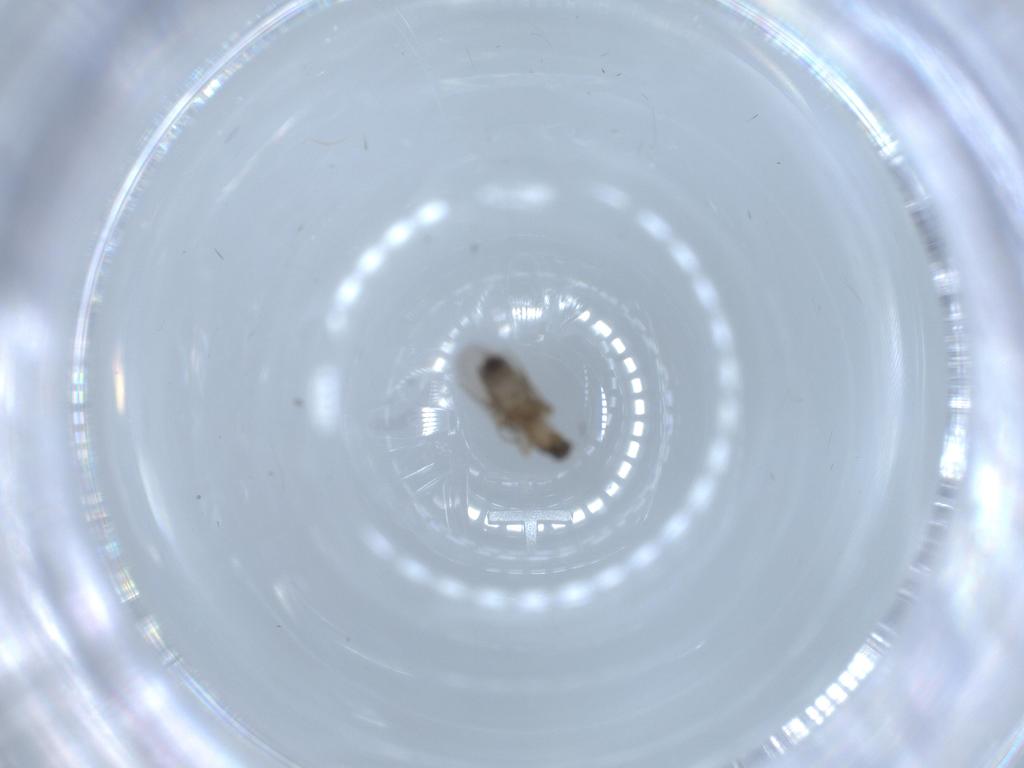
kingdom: Animalia
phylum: Arthropoda
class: Insecta
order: Diptera
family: Phoridae
